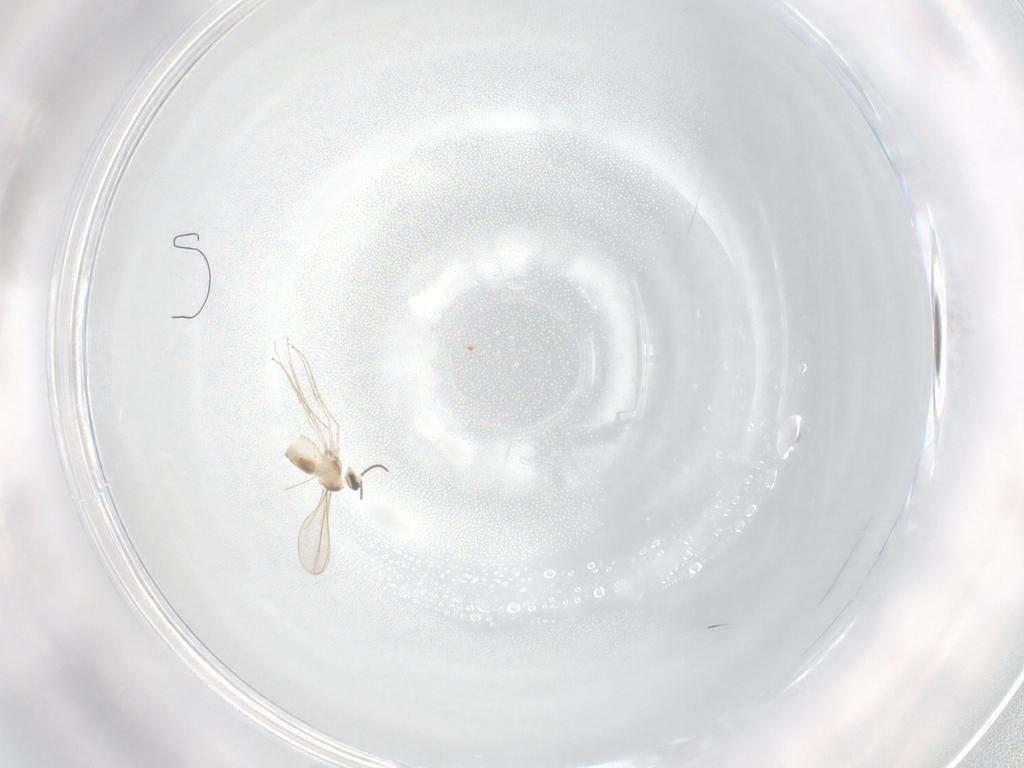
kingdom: Animalia
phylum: Arthropoda
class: Insecta
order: Diptera
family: Cecidomyiidae
